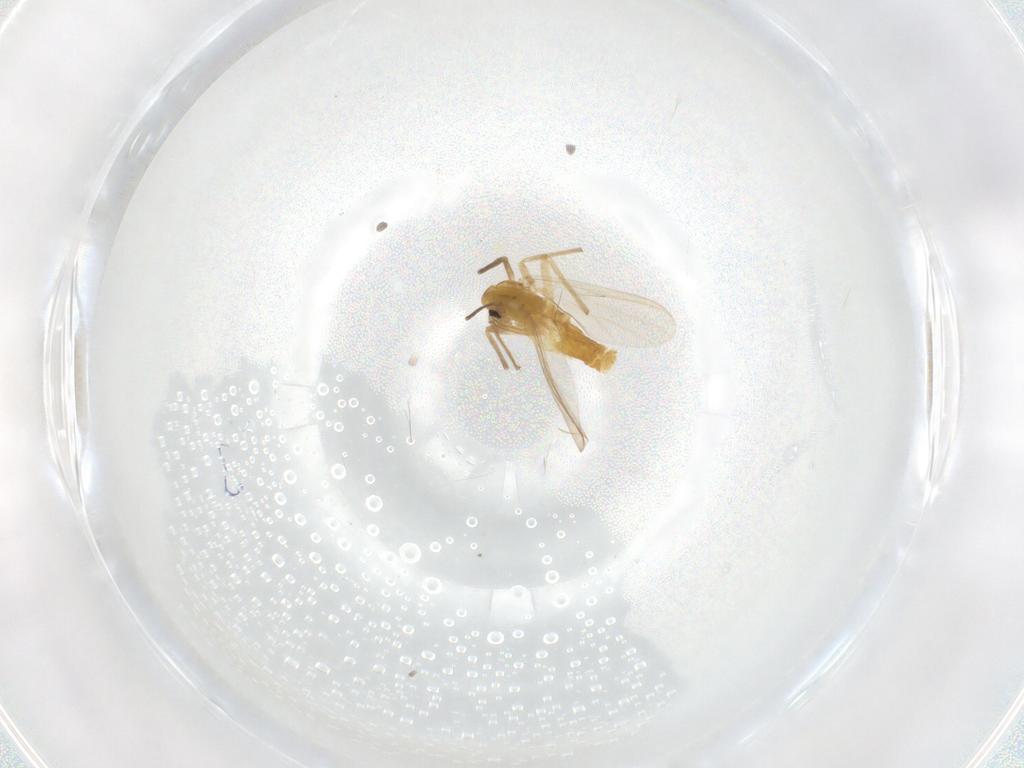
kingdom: Animalia
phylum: Arthropoda
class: Insecta
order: Diptera
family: Chironomidae
